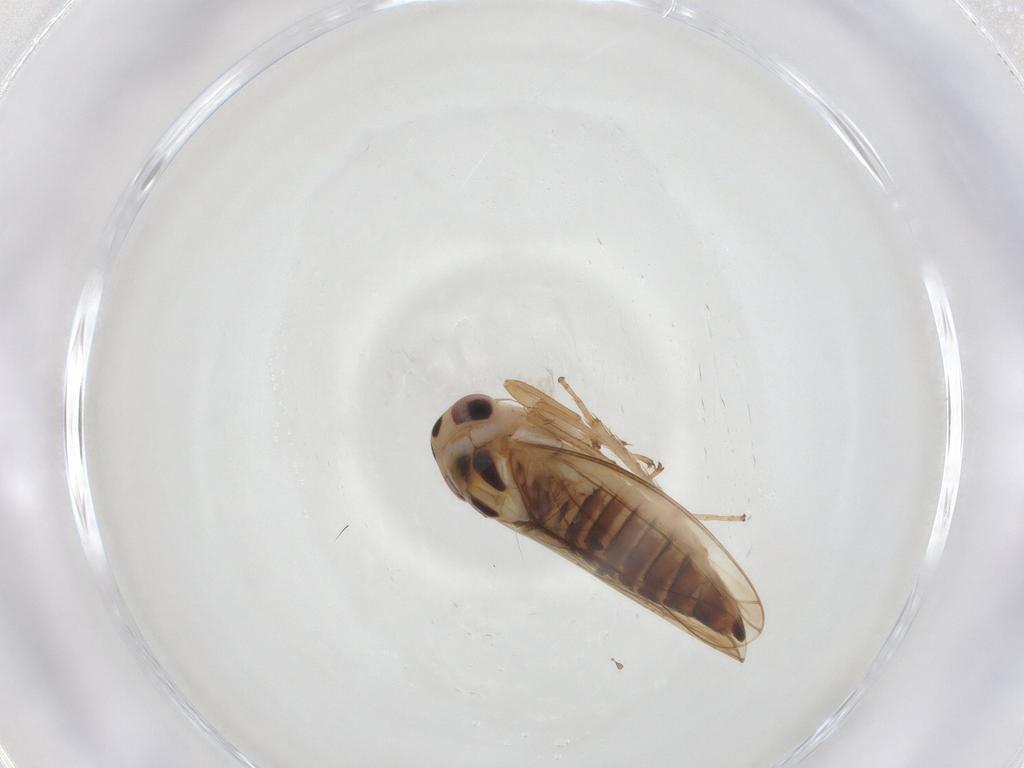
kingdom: Animalia
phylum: Arthropoda
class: Insecta
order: Hemiptera
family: Cicadellidae
